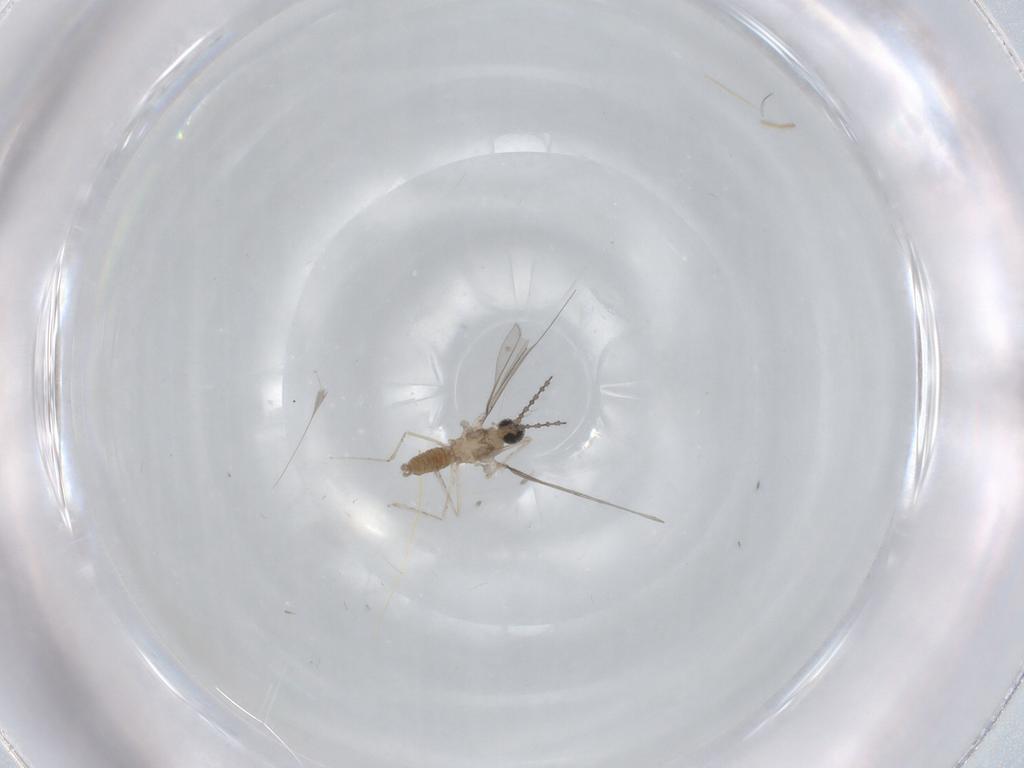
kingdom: Animalia
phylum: Arthropoda
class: Insecta
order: Diptera
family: Cecidomyiidae
